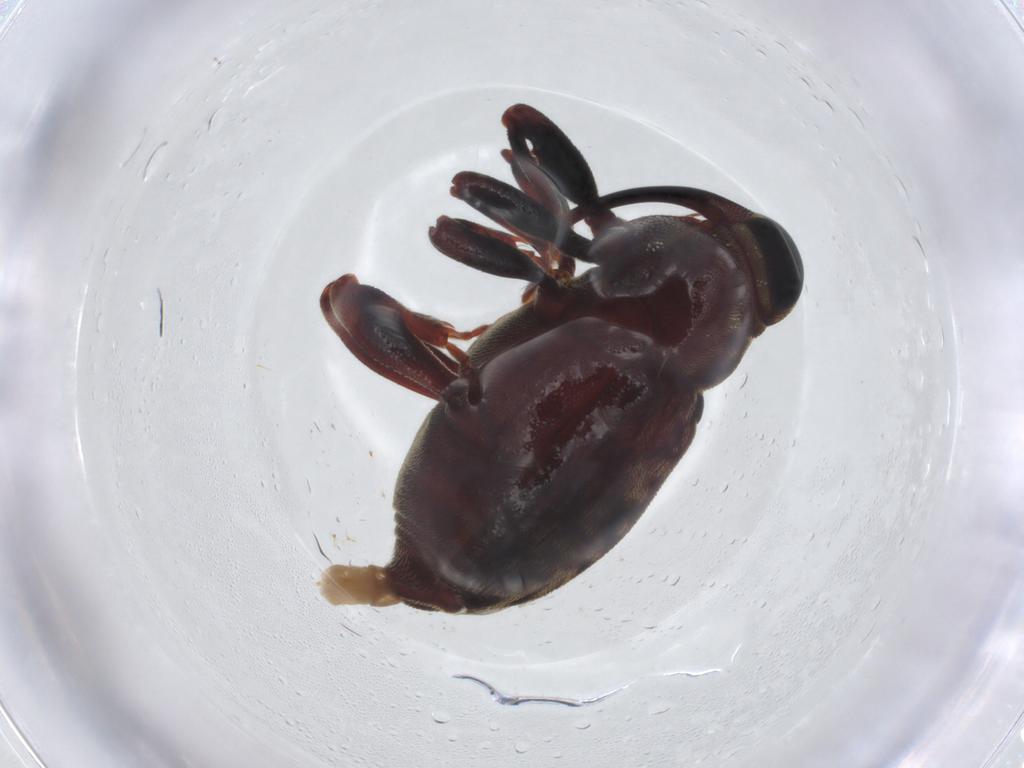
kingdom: Animalia
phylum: Arthropoda
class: Insecta
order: Coleoptera
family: Curculionidae
